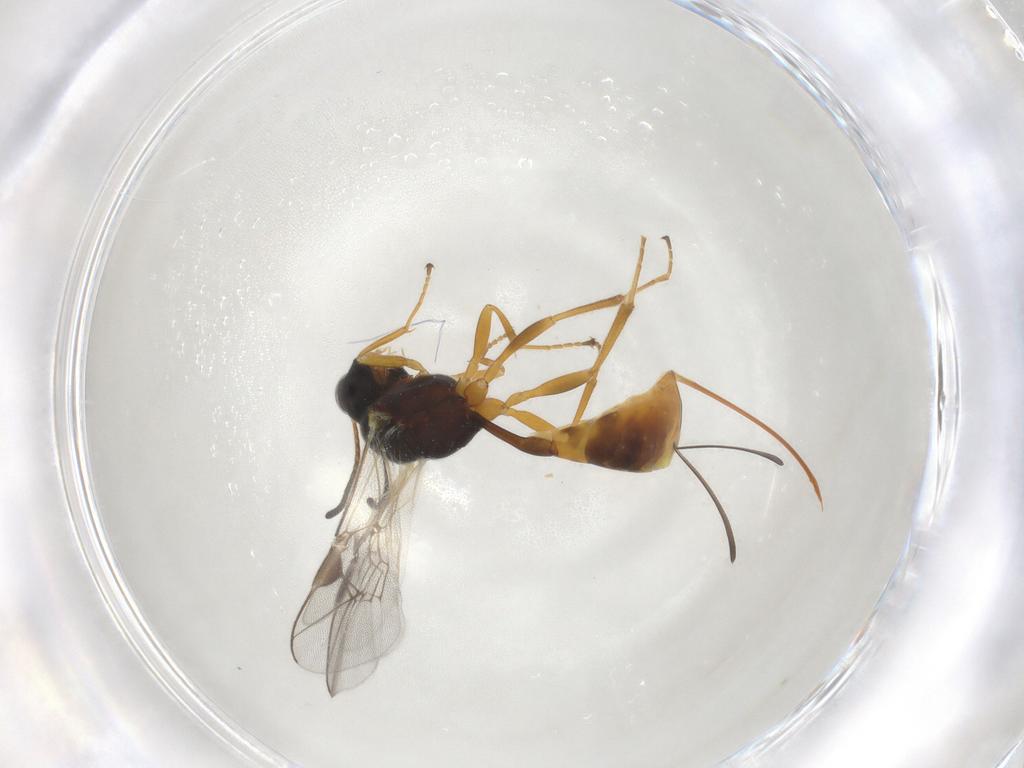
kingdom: Animalia
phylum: Arthropoda
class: Insecta
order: Hymenoptera
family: Ichneumonidae
